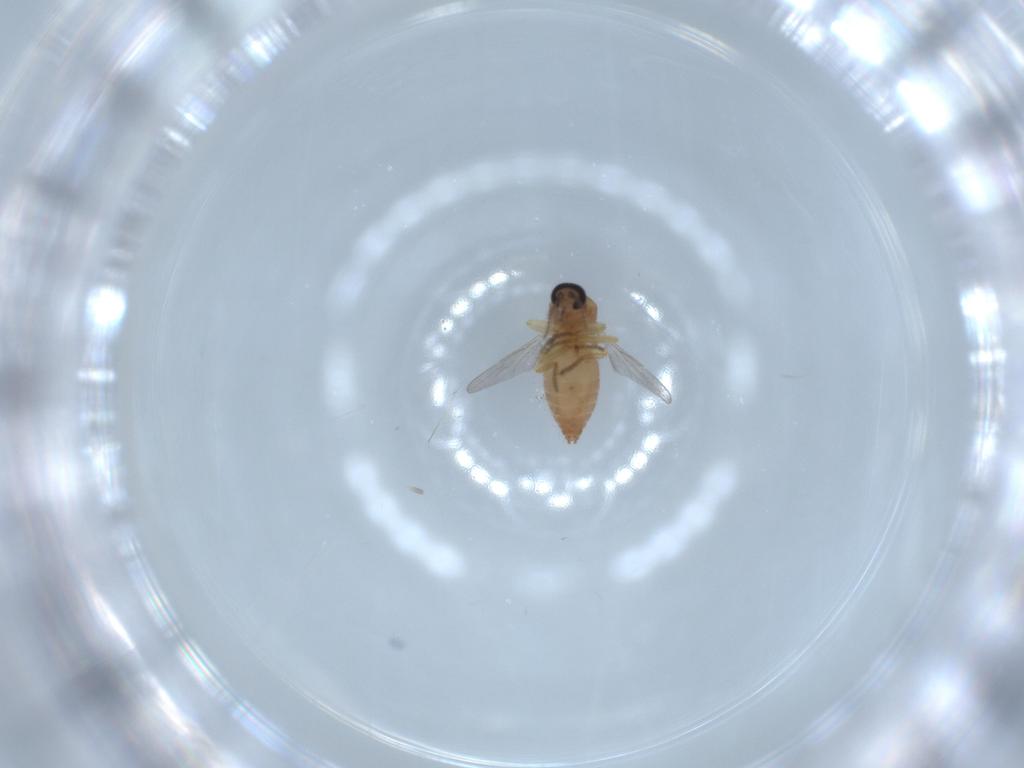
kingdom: Animalia
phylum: Arthropoda
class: Insecta
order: Diptera
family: Ceratopogonidae
